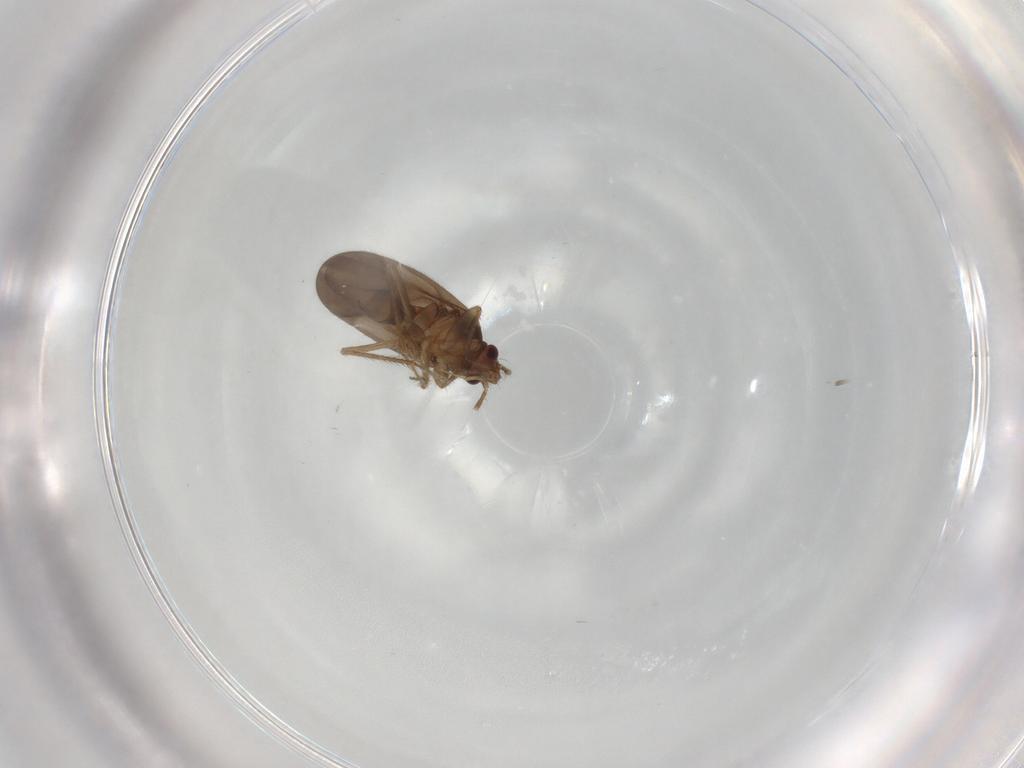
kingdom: Animalia
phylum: Arthropoda
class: Insecta
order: Hemiptera
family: Ceratocombidae
